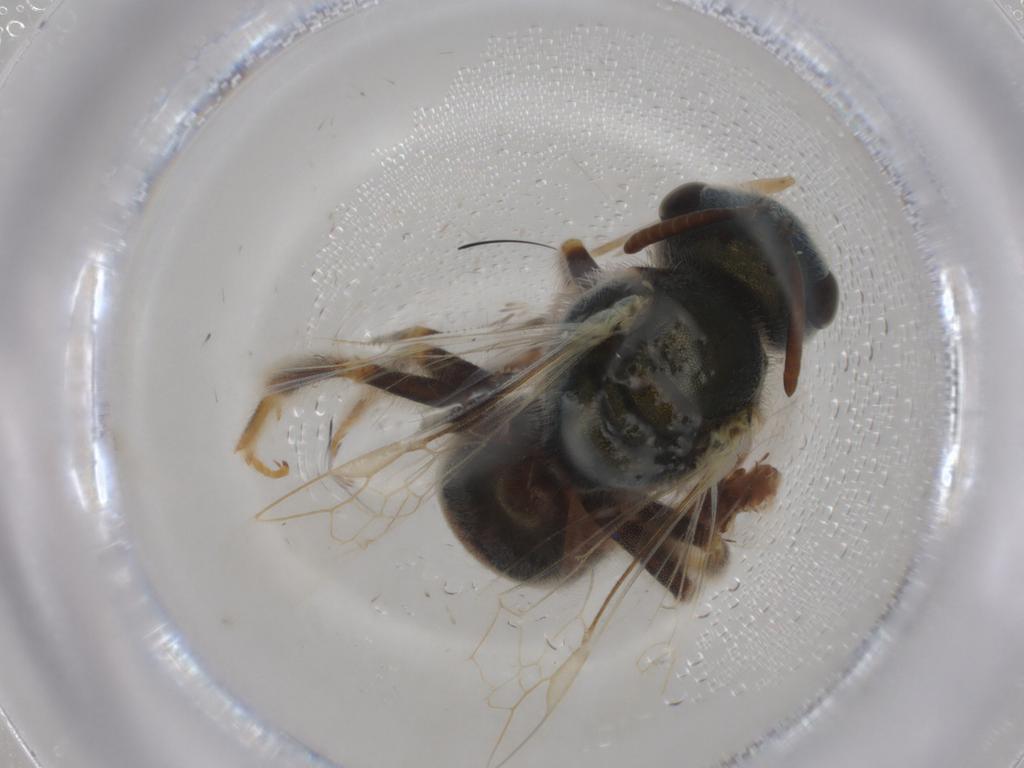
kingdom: Animalia
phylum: Arthropoda
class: Insecta
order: Hymenoptera
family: Halictidae
